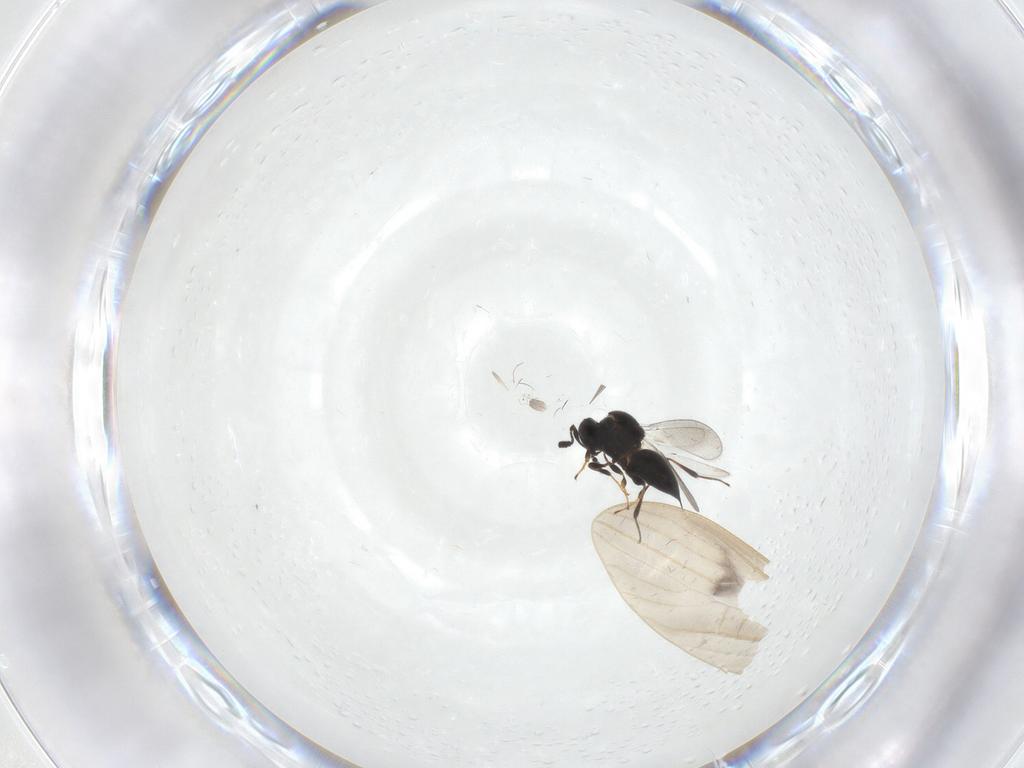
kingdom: Animalia
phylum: Arthropoda
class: Insecta
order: Hymenoptera
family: Platygastridae
